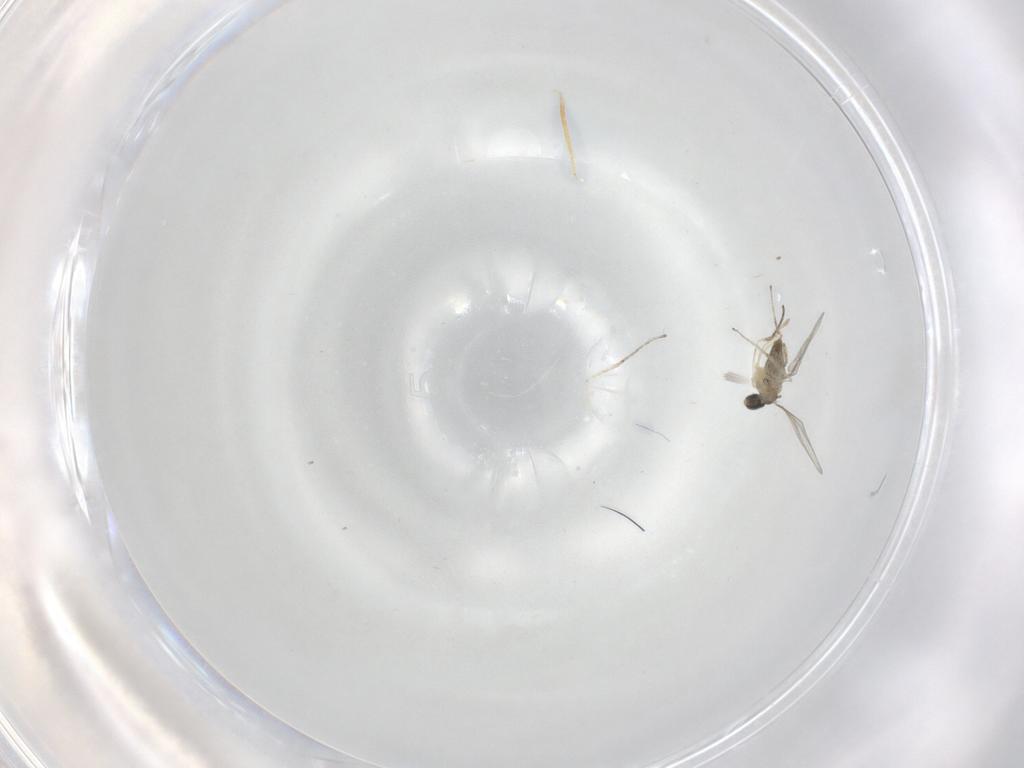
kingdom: Animalia
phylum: Arthropoda
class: Insecta
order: Diptera
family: Cecidomyiidae
